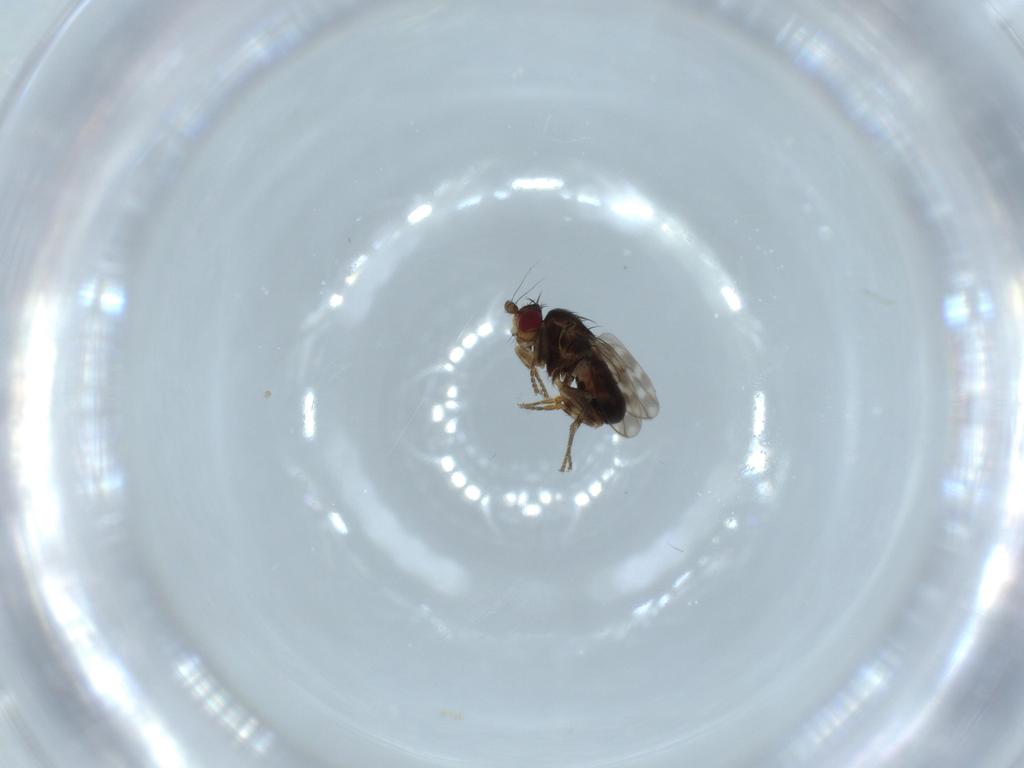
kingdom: Animalia
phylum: Arthropoda
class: Insecta
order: Diptera
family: Sphaeroceridae
